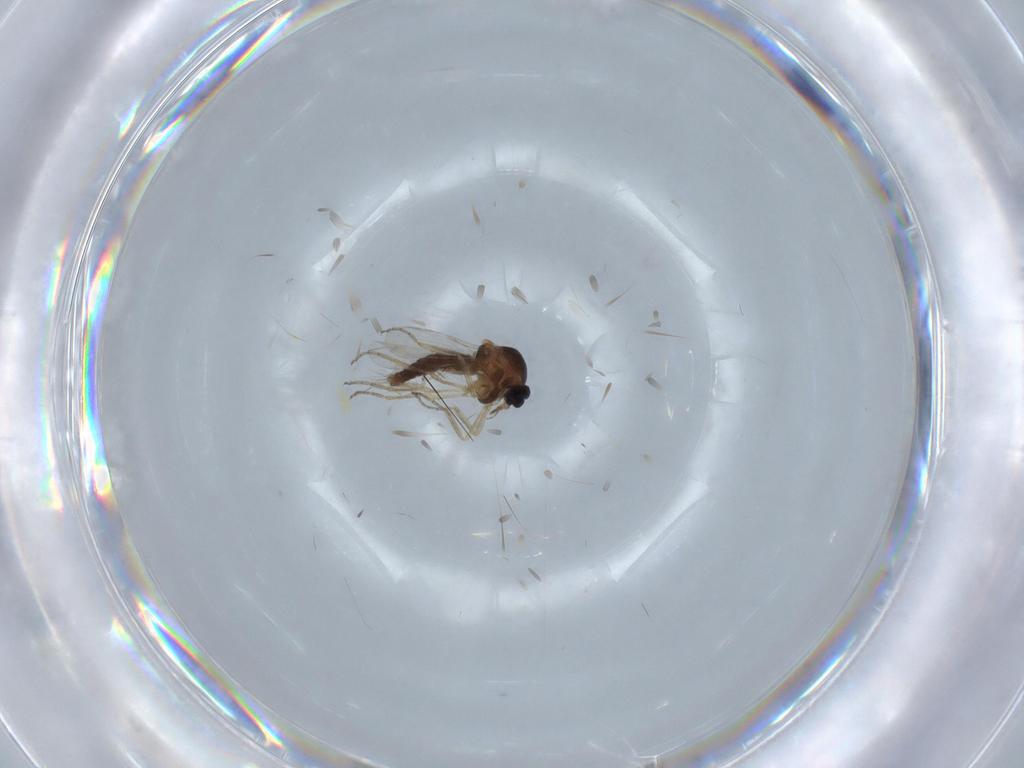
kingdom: Animalia
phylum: Arthropoda
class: Insecta
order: Diptera
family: Ceratopogonidae
